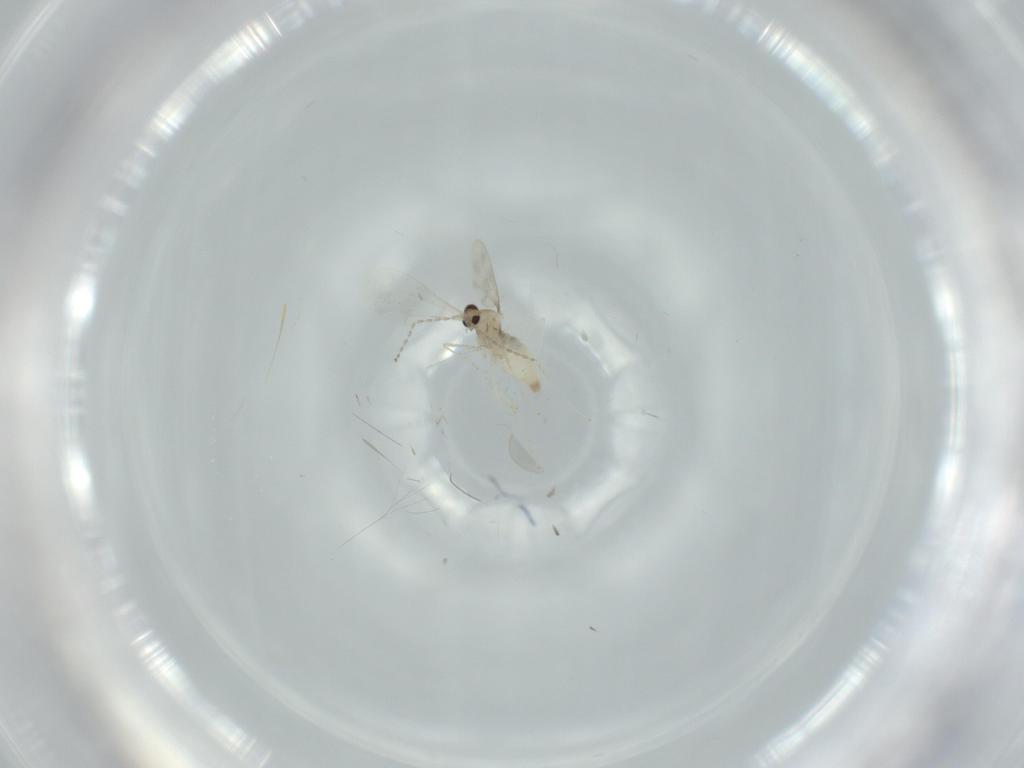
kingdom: Animalia
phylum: Arthropoda
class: Insecta
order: Diptera
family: Cecidomyiidae
